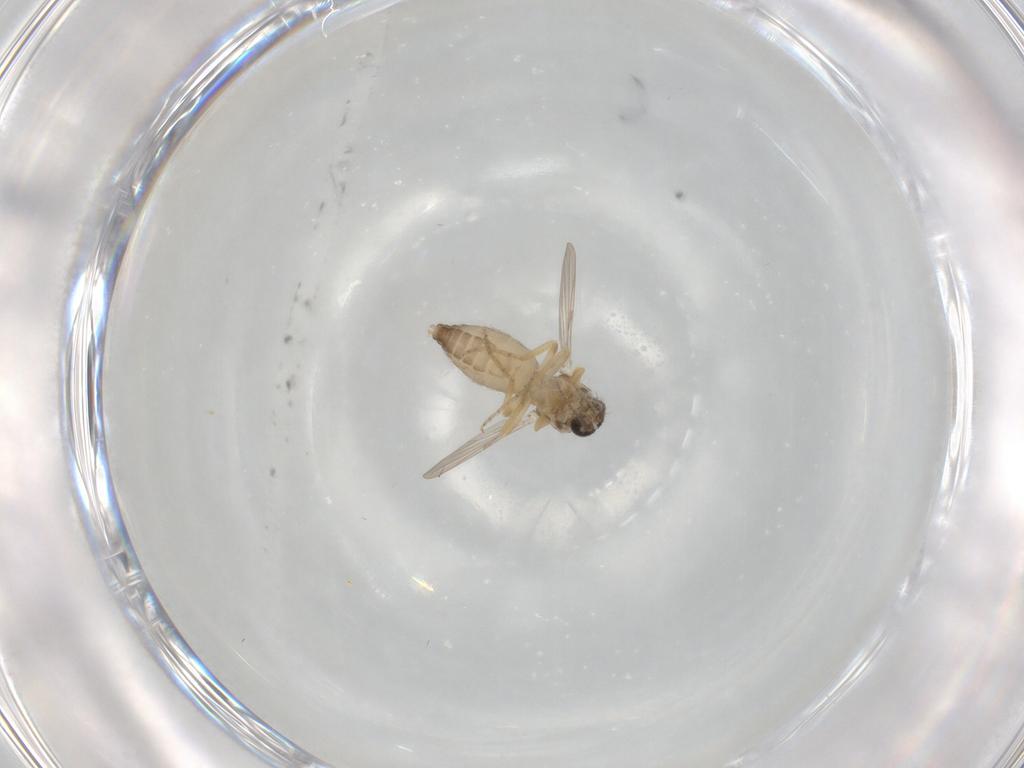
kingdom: Animalia
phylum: Arthropoda
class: Insecta
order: Diptera
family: Ceratopogonidae
